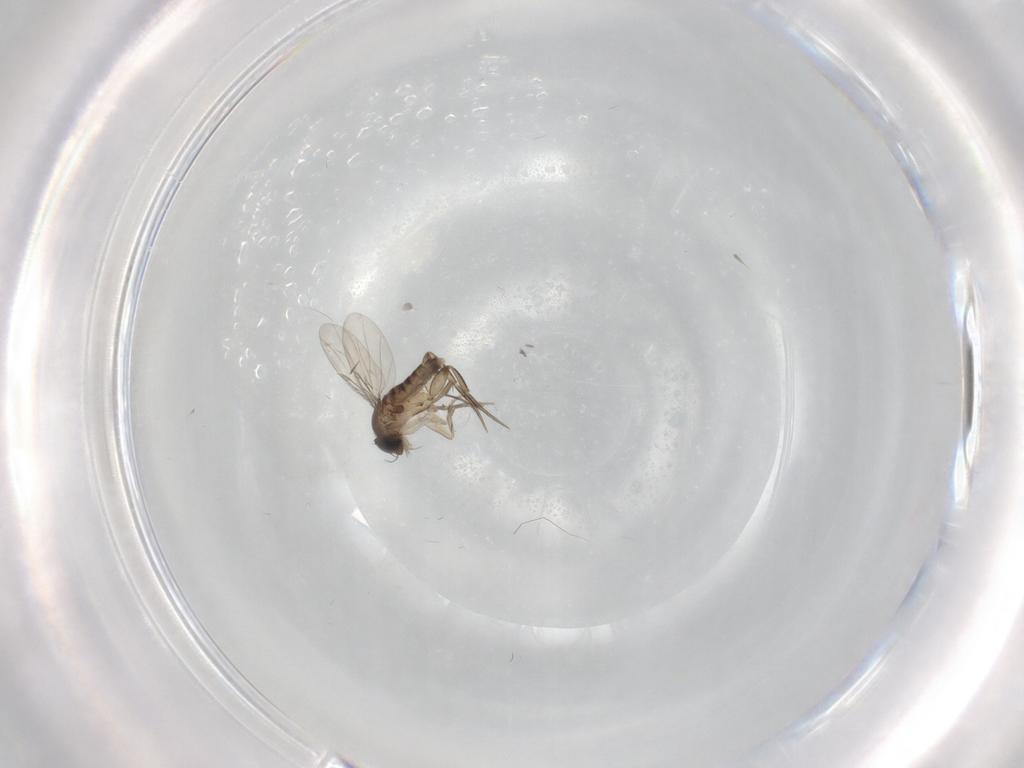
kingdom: Animalia
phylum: Arthropoda
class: Insecta
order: Diptera
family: Phoridae
